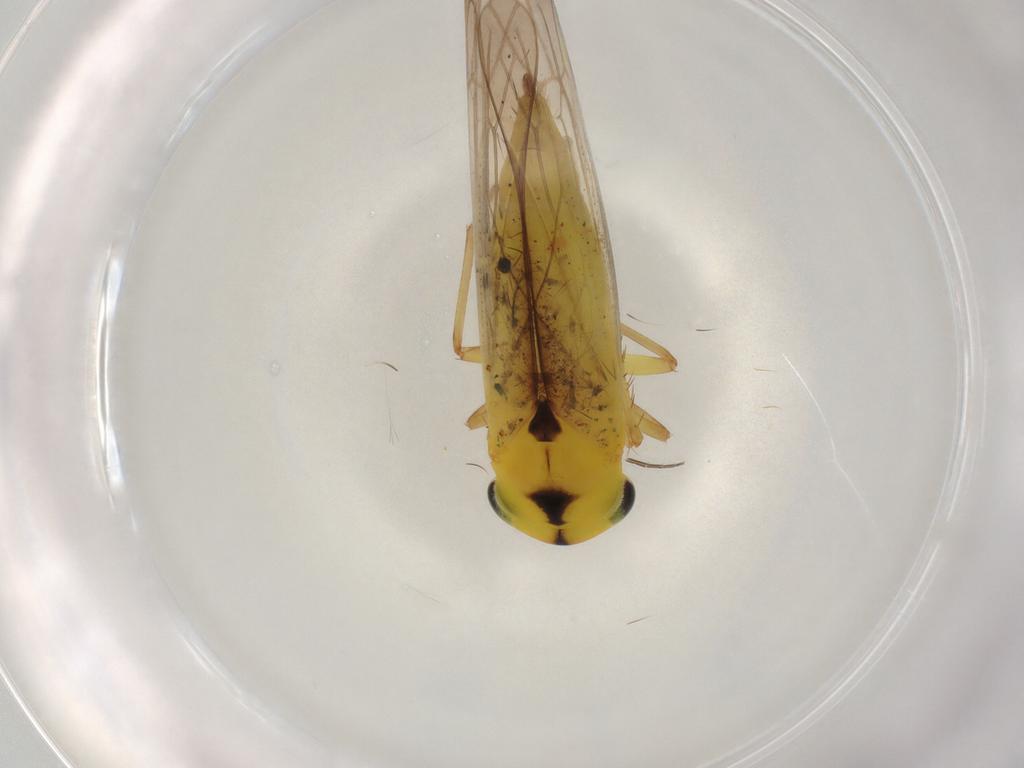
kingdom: Animalia
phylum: Arthropoda
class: Insecta
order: Hemiptera
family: Cicadellidae
